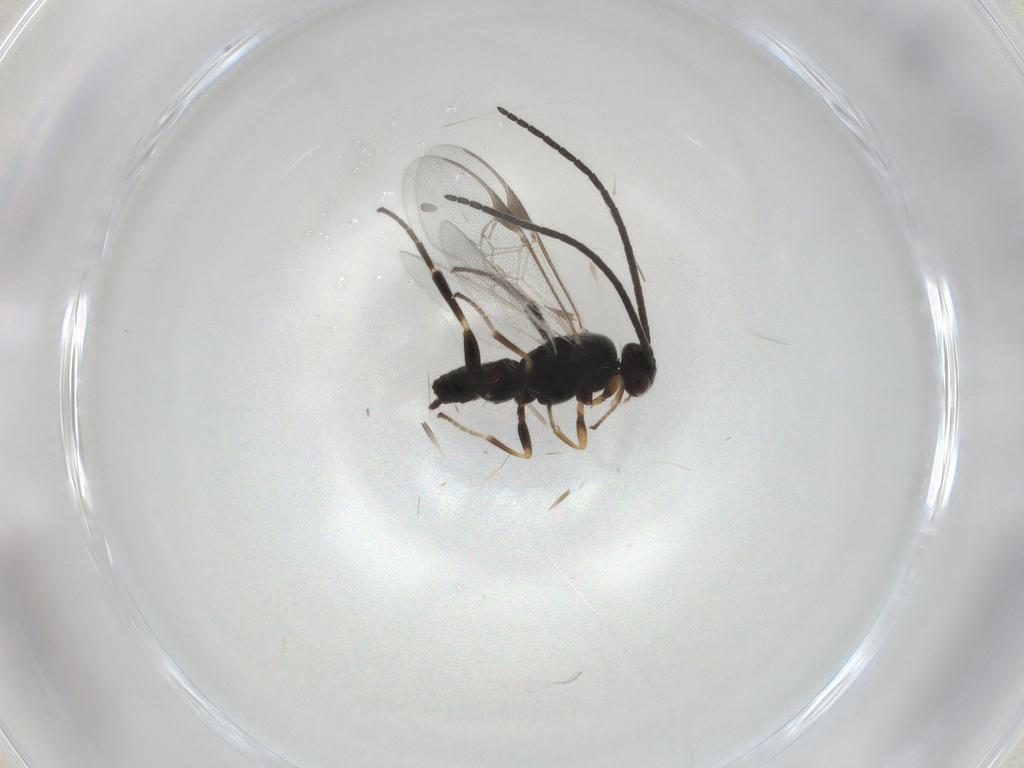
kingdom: Animalia
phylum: Arthropoda
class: Insecta
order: Hymenoptera
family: Braconidae
